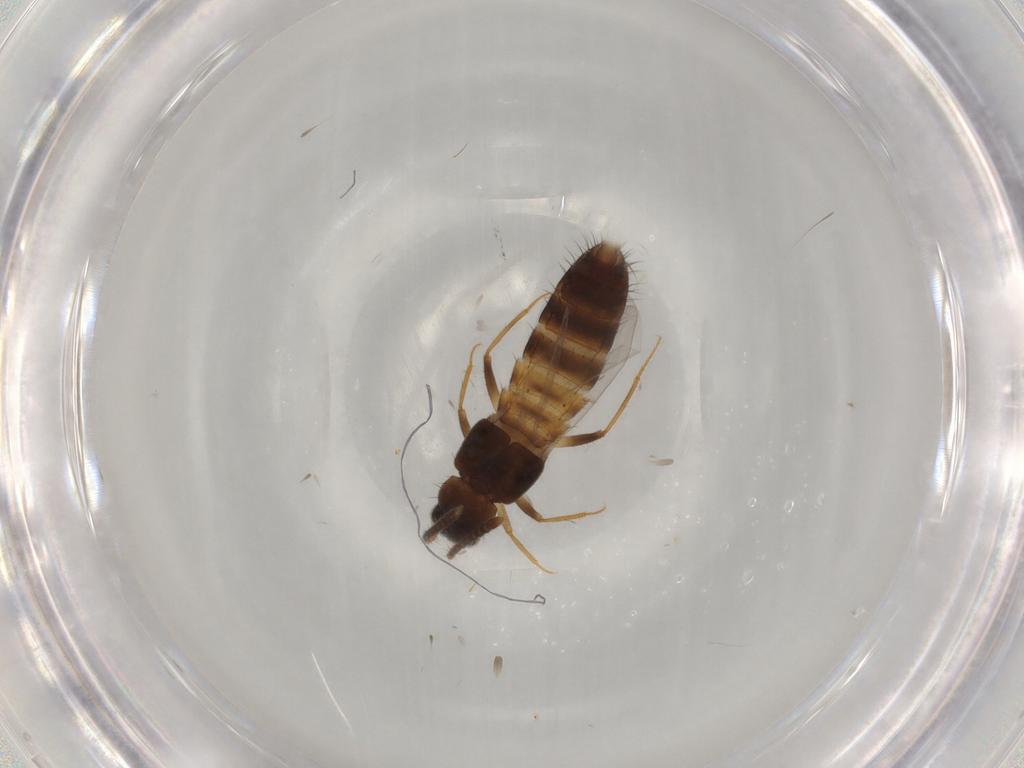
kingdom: Animalia
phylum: Arthropoda
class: Insecta
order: Coleoptera
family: Staphylinidae
